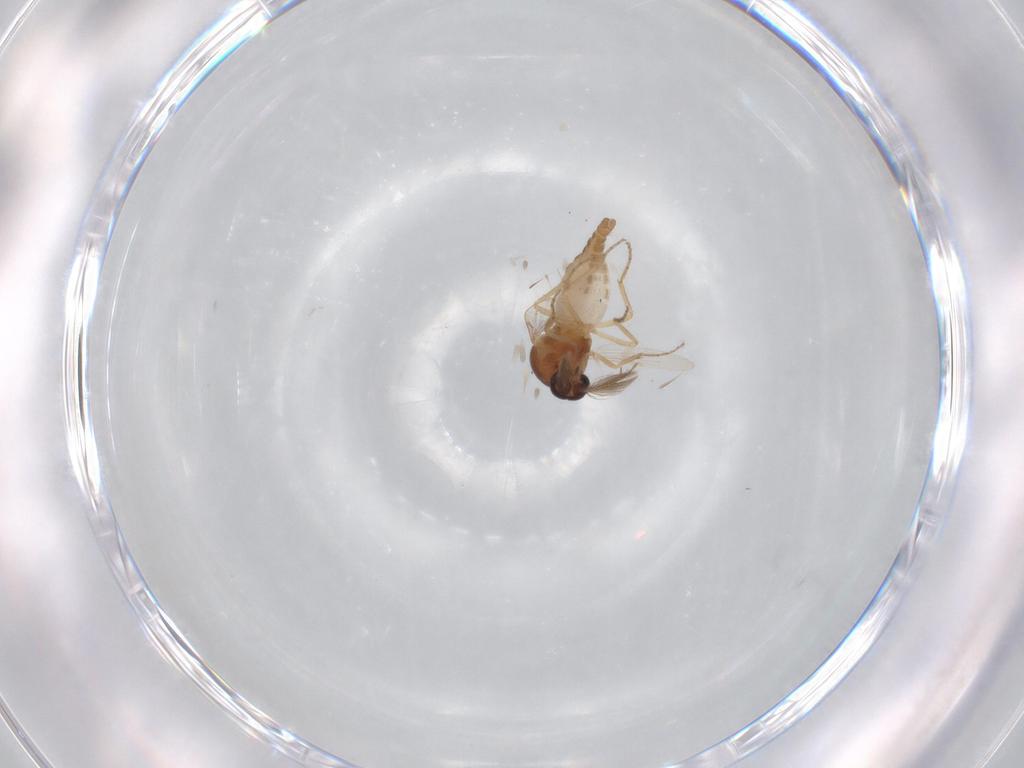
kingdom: Animalia
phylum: Arthropoda
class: Insecta
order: Diptera
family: Ceratopogonidae
